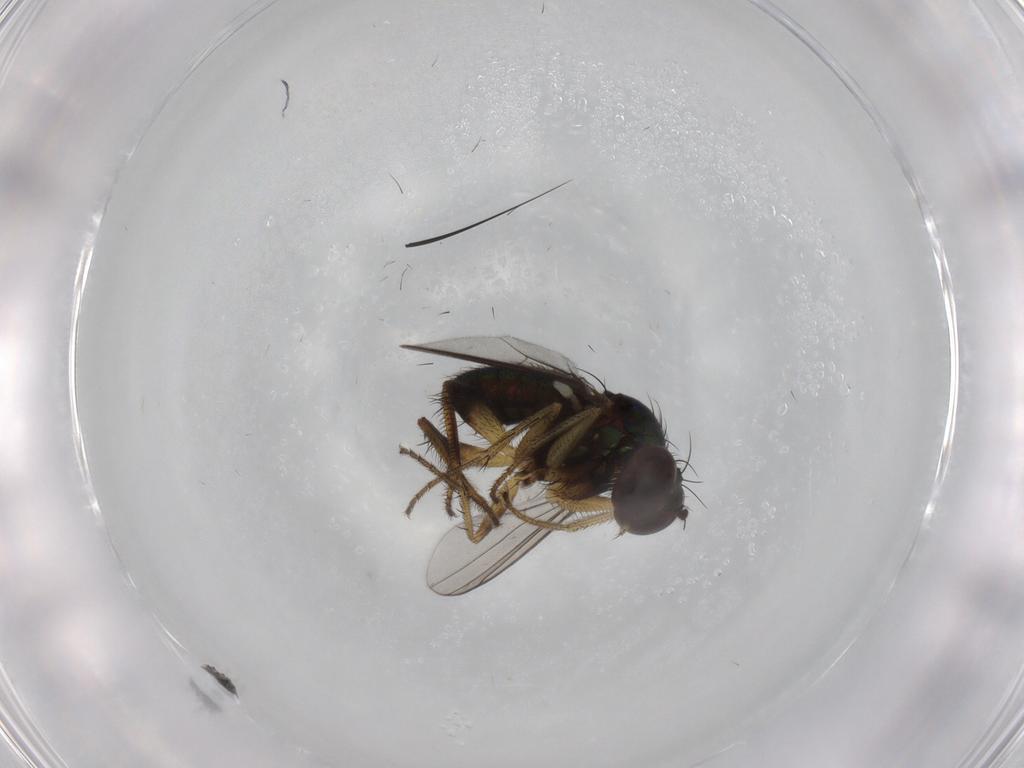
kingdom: Animalia
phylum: Arthropoda
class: Insecta
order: Diptera
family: Dolichopodidae
